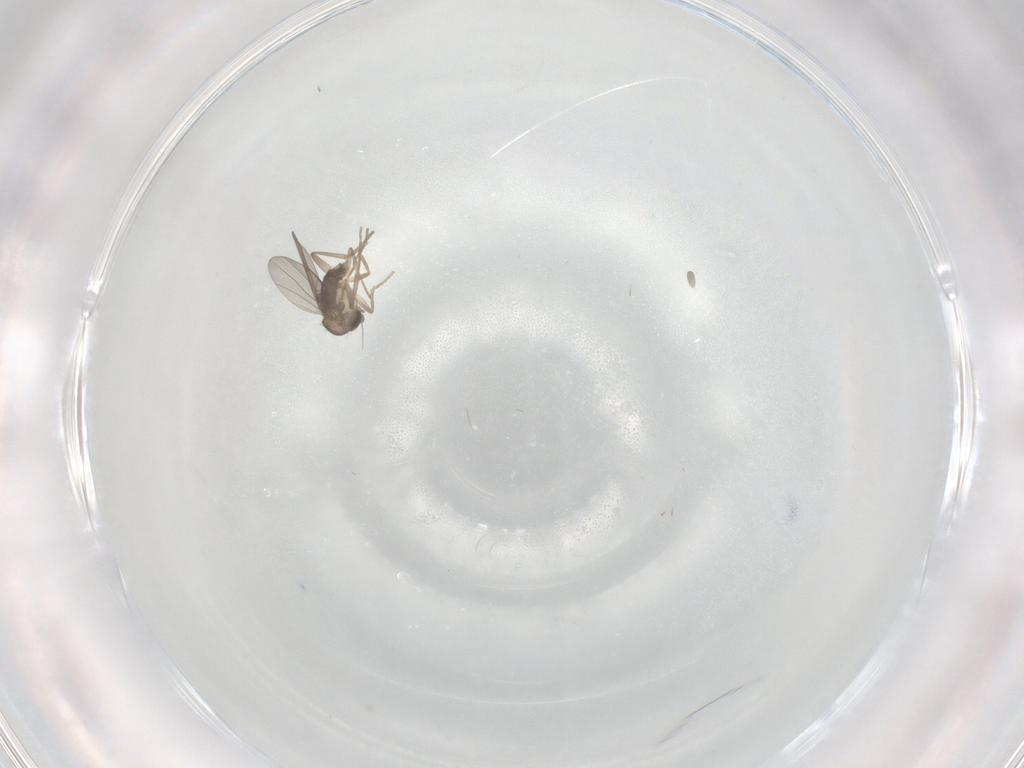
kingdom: Animalia
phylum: Arthropoda
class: Insecta
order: Diptera
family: Phoridae
